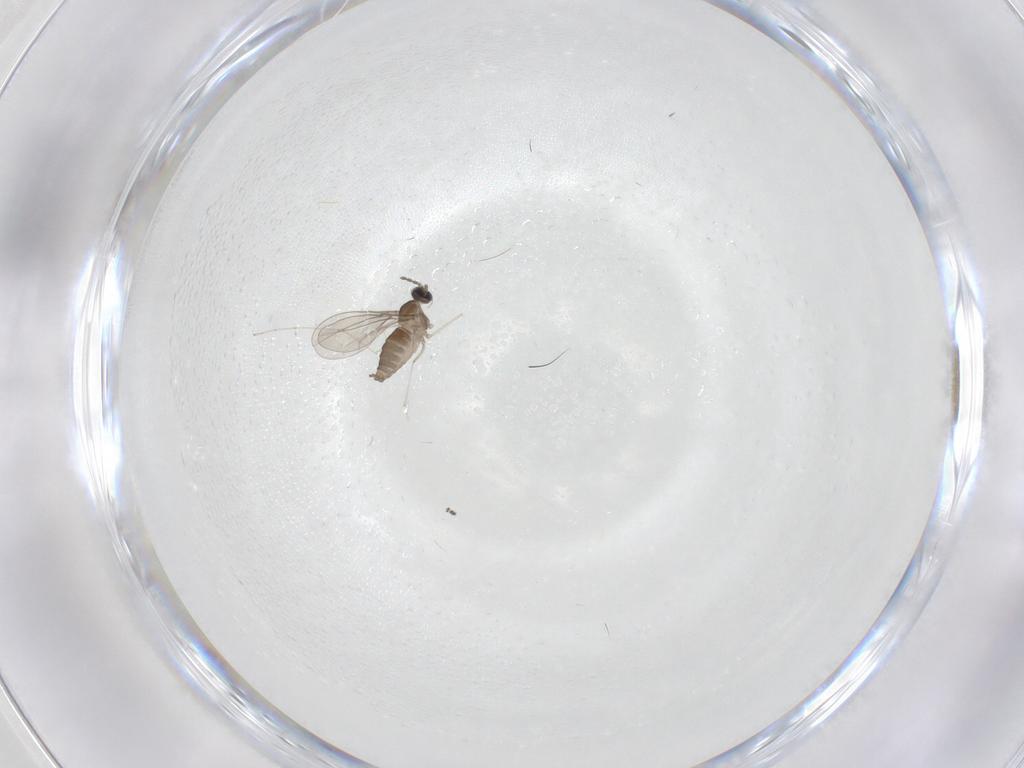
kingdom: Animalia
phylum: Arthropoda
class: Insecta
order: Diptera
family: Cecidomyiidae
